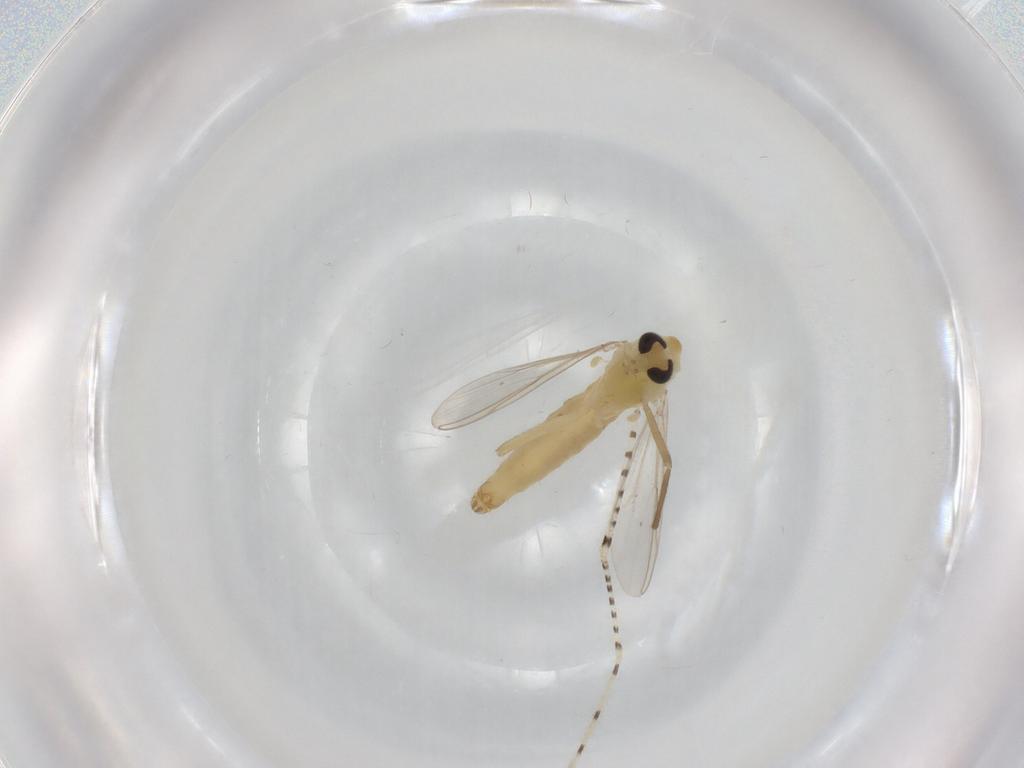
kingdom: Animalia
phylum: Arthropoda
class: Insecta
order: Diptera
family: Chironomidae
